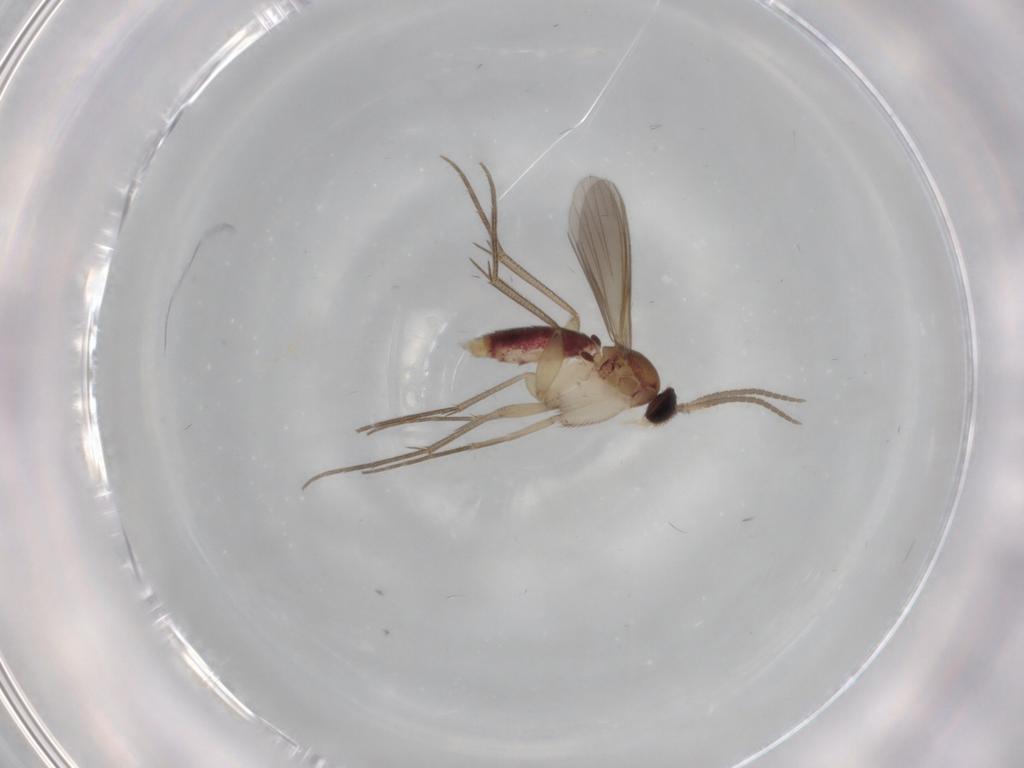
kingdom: Animalia
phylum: Arthropoda
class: Insecta
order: Diptera
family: Mycetophilidae
